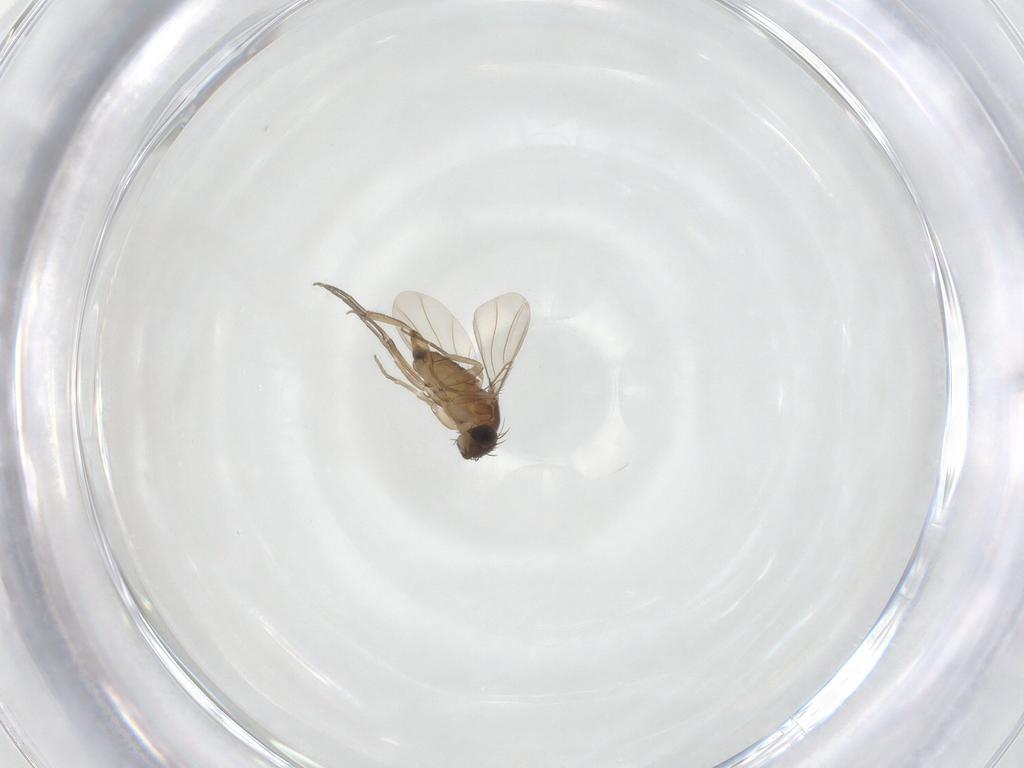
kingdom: Animalia
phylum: Arthropoda
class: Insecta
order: Diptera
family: Phoridae
